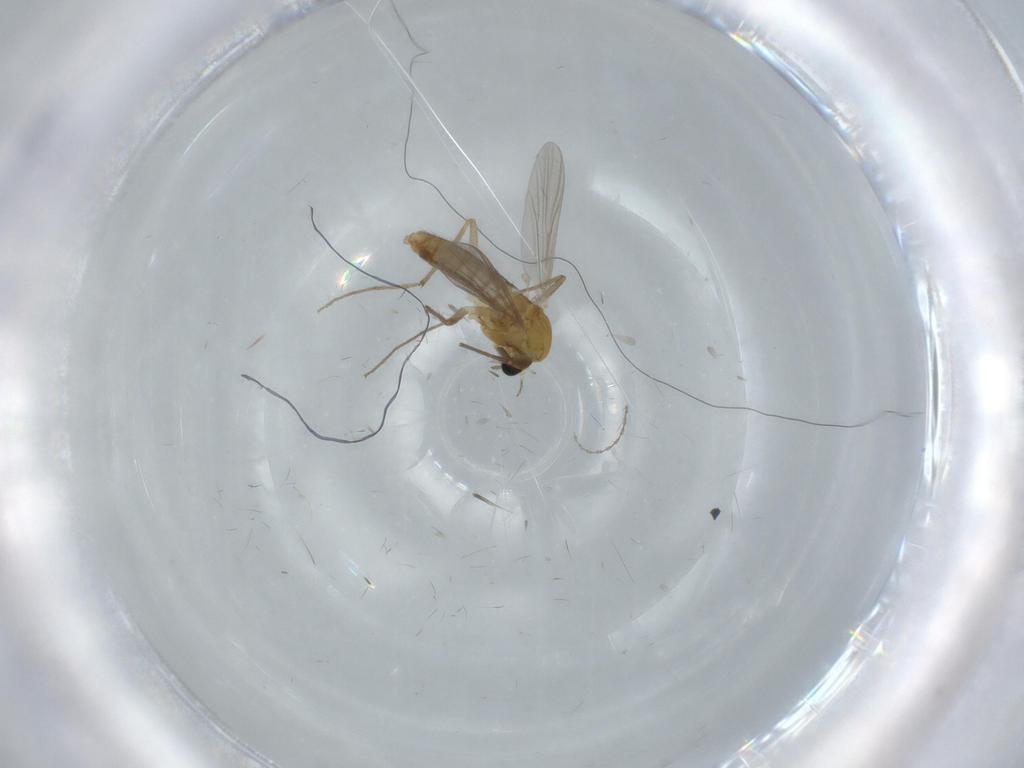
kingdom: Animalia
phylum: Arthropoda
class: Insecta
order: Diptera
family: Chironomidae
